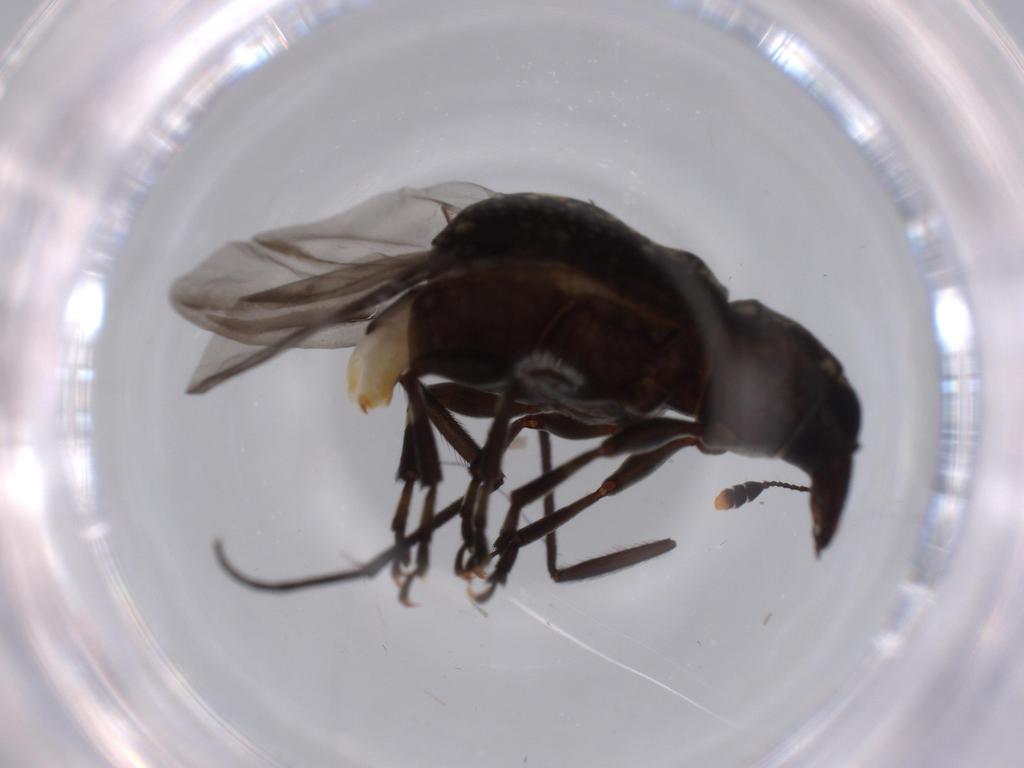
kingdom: Animalia
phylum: Arthropoda
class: Insecta
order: Coleoptera
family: Anthribidae
